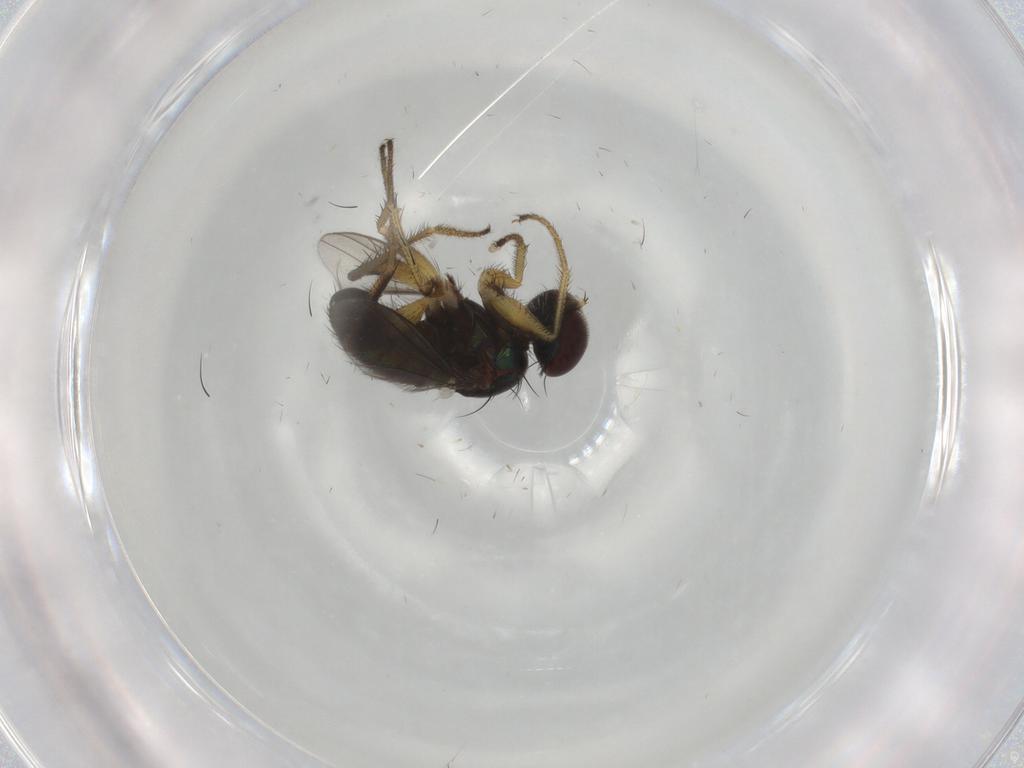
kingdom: Animalia
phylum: Arthropoda
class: Insecta
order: Diptera
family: Dolichopodidae
